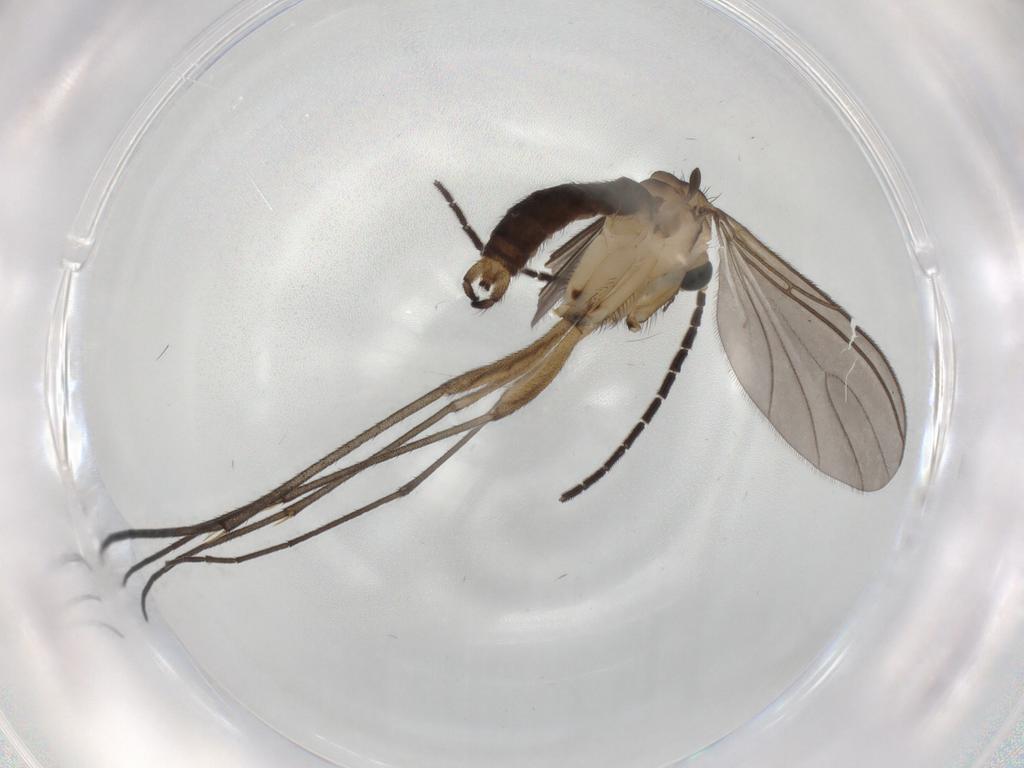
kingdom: Animalia
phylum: Arthropoda
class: Insecta
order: Diptera
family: Sciaridae
